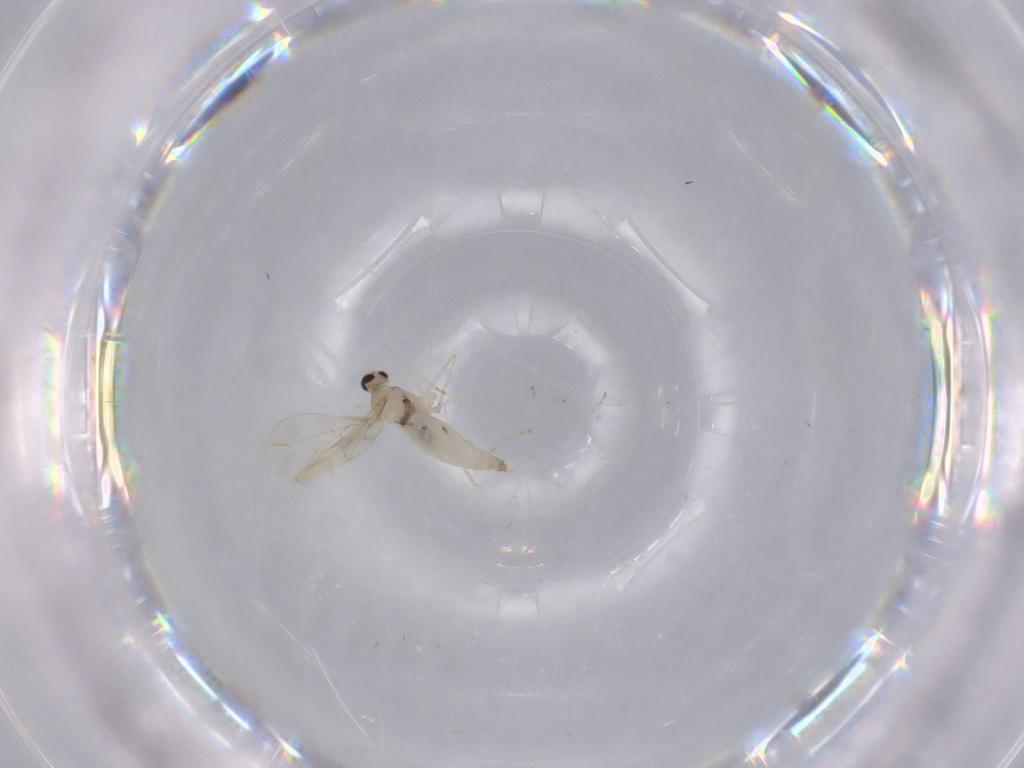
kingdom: Animalia
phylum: Arthropoda
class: Insecta
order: Diptera
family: Cecidomyiidae
